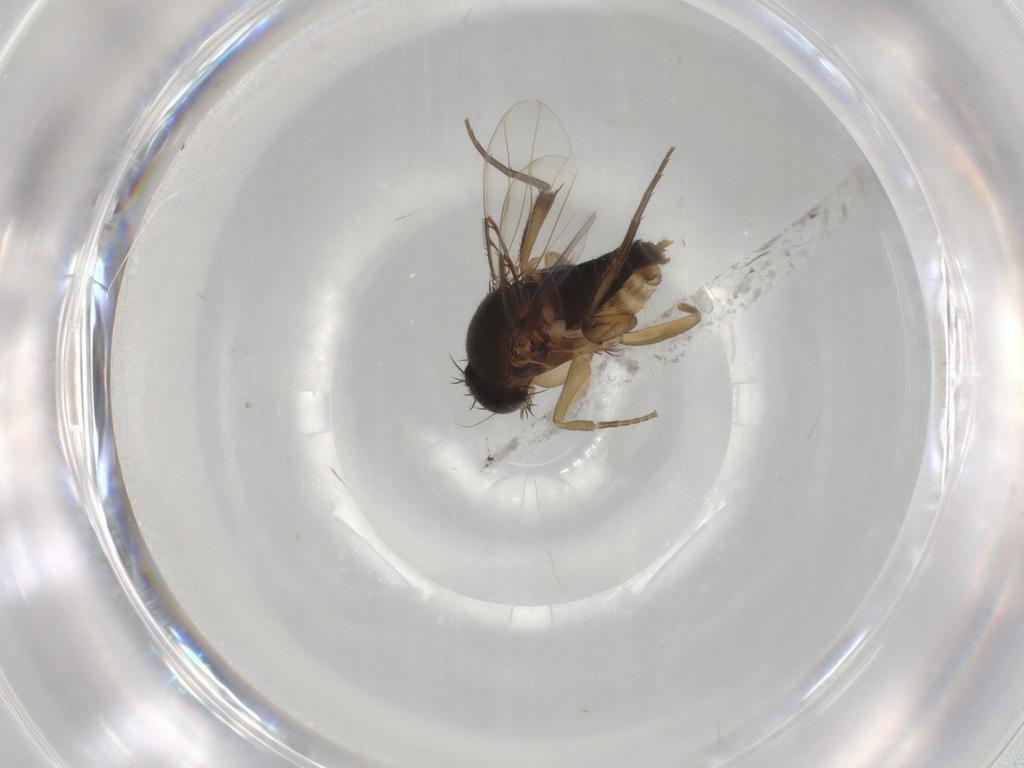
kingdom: Animalia
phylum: Arthropoda
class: Insecta
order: Diptera
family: Phoridae
